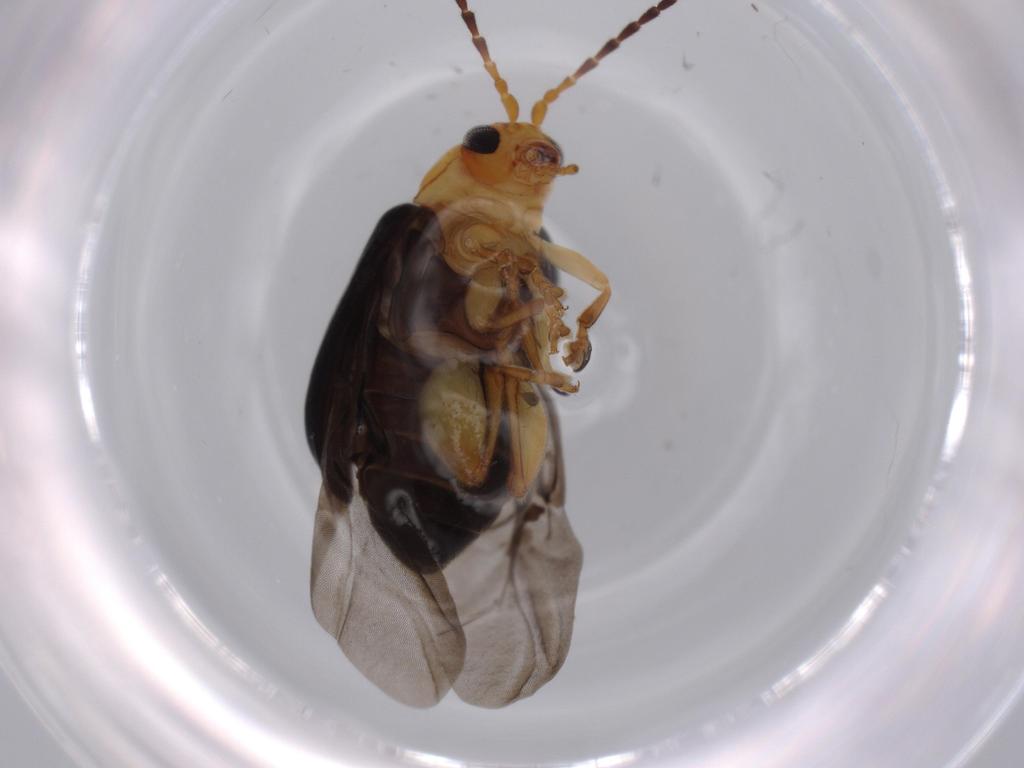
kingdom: Animalia
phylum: Arthropoda
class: Insecta
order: Coleoptera
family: Chrysomelidae
